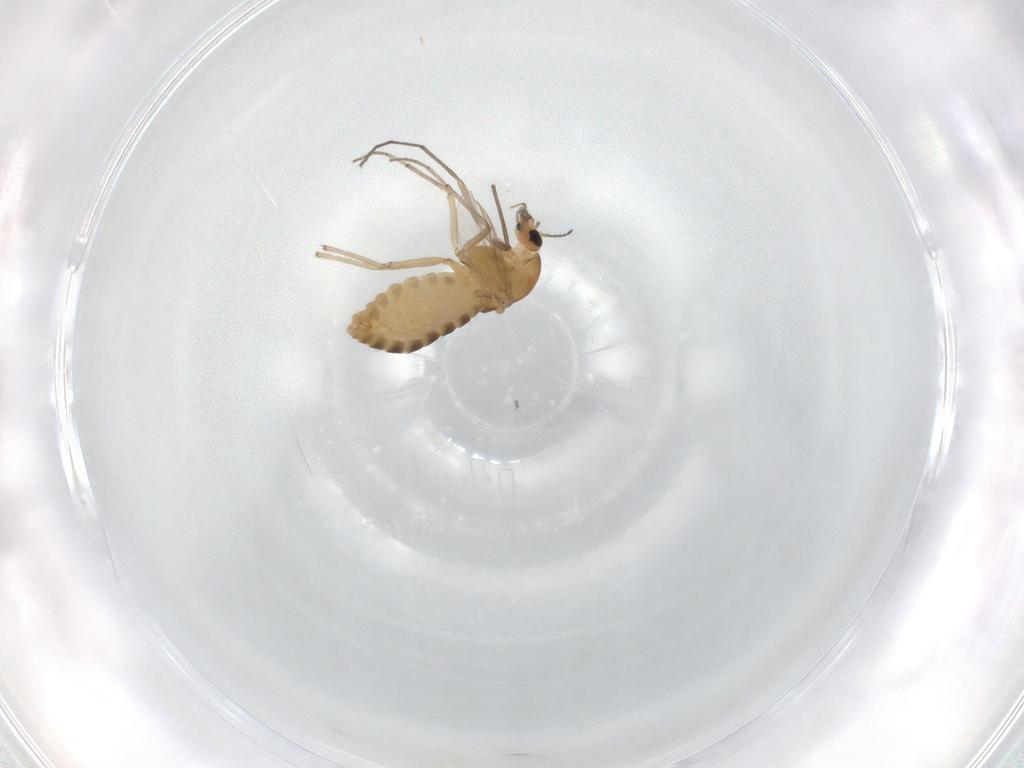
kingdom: Animalia
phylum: Arthropoda
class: Insecta
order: Diptera
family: Chironomidae
